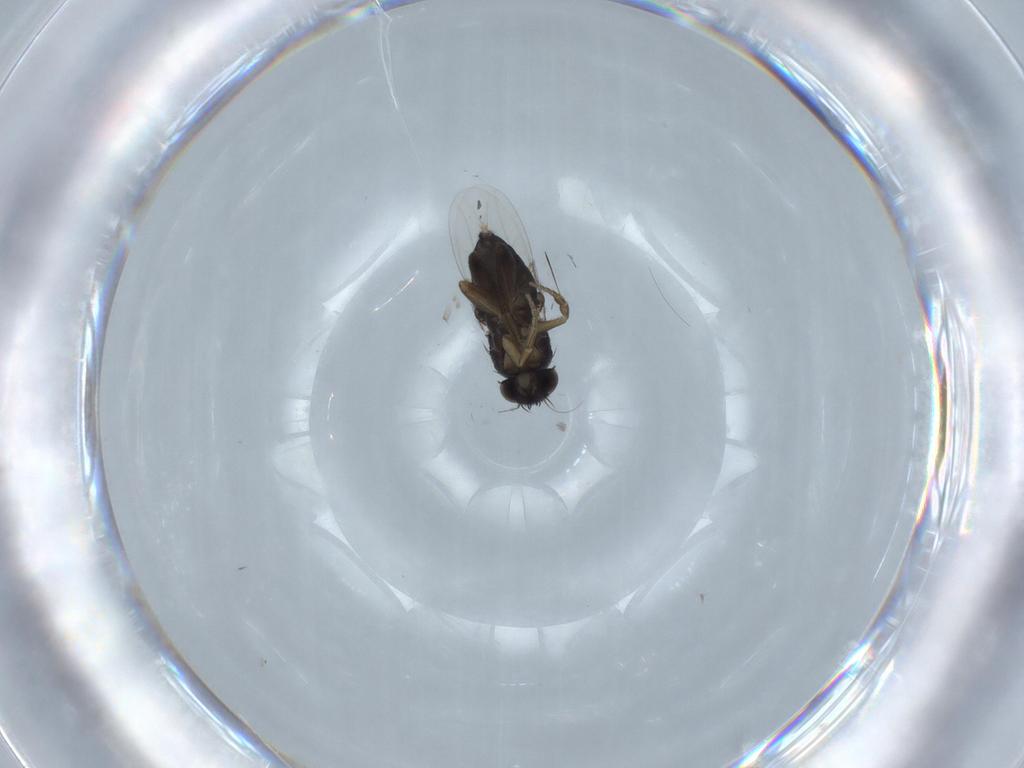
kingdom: Animalia
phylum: Arthropoda
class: Insecta
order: Diptera
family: Phoridae
